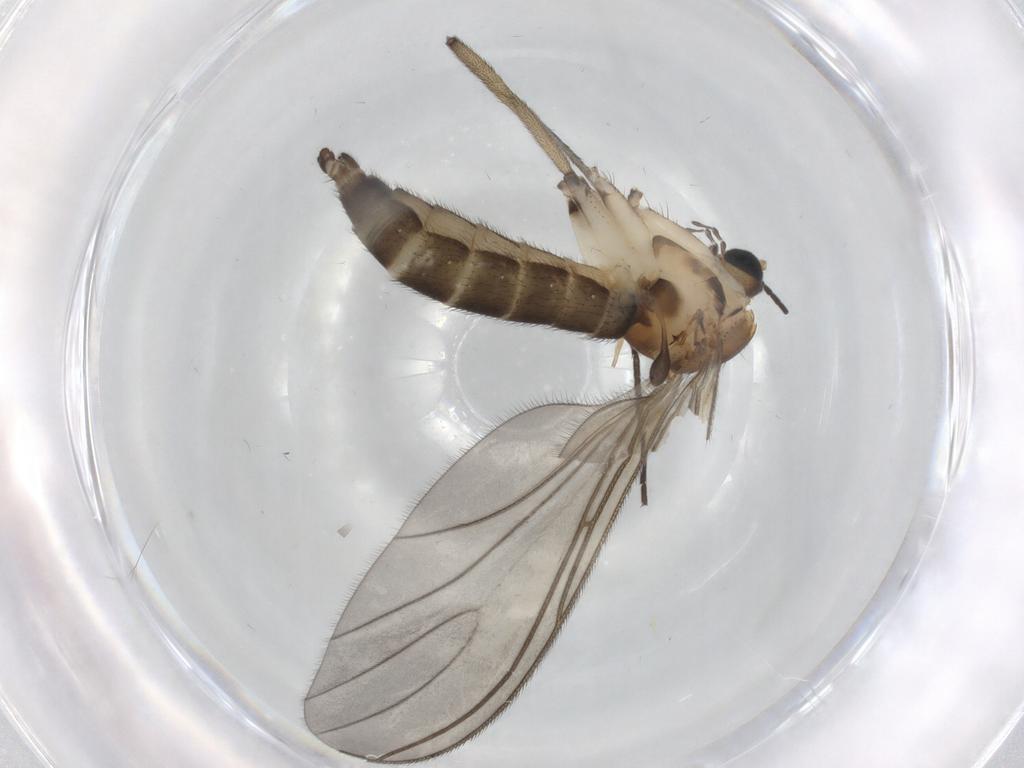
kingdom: Animalia
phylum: Arthropoda
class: Insecta
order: Diptera
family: Sciaridae
